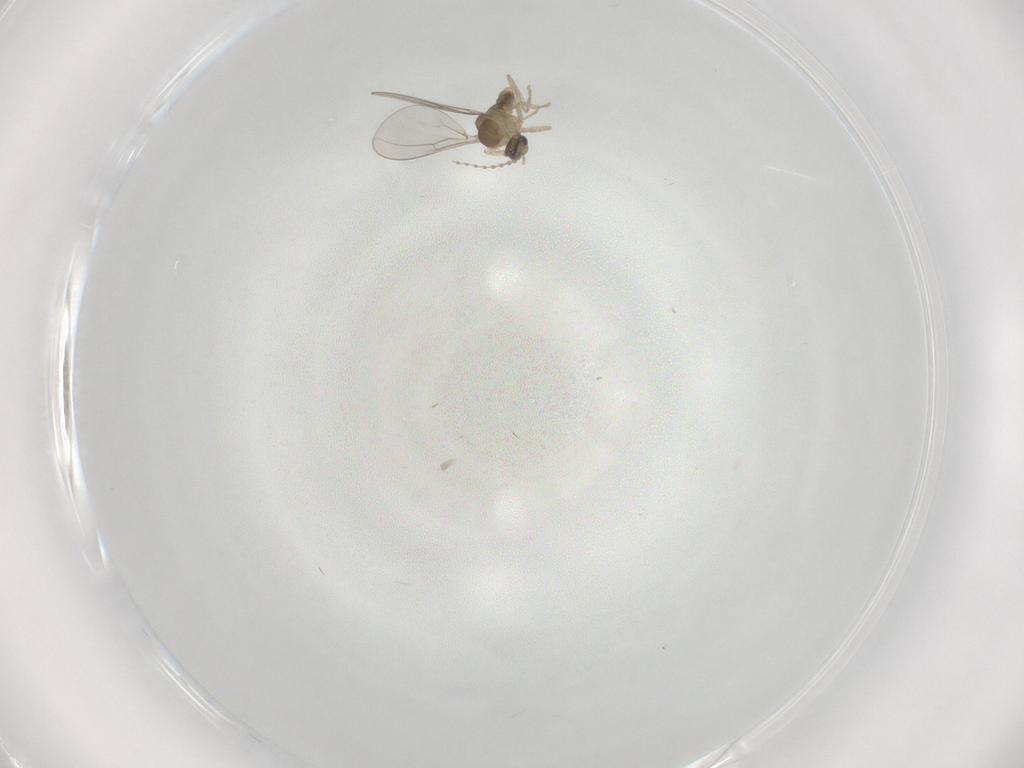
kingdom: Animalia
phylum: Arthropoda
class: Insecta
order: Diptera
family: Cecidomyiidae
